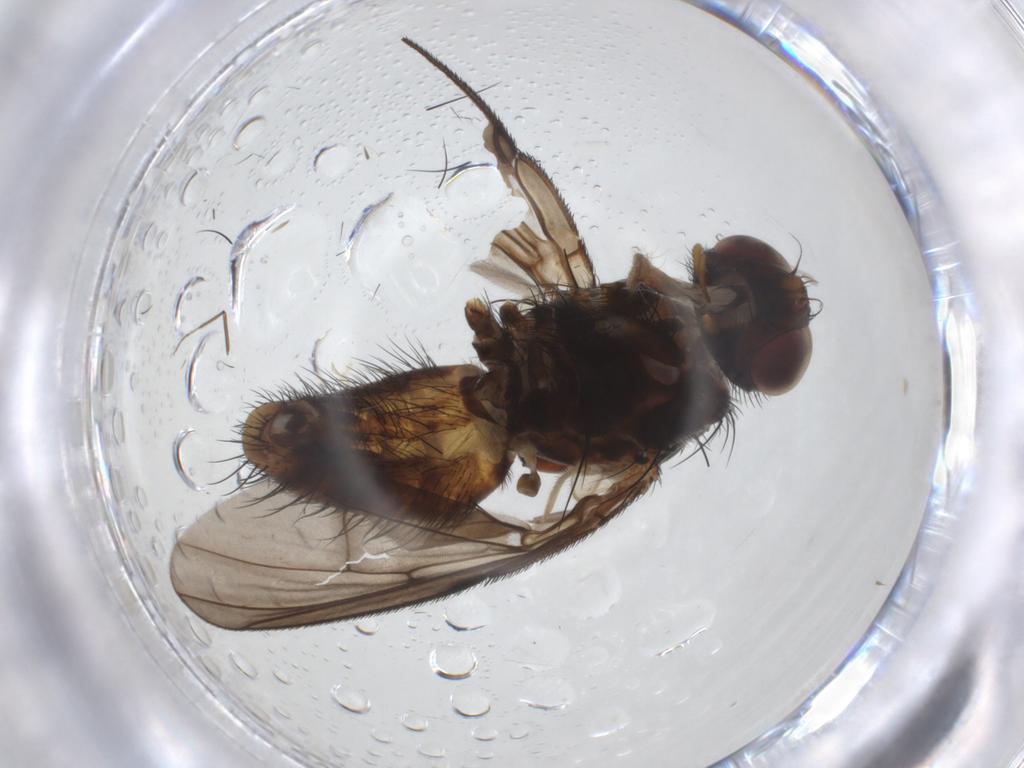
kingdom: Animalia
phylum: Arthropoda
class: Insecta
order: Diptera
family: Muscidae
